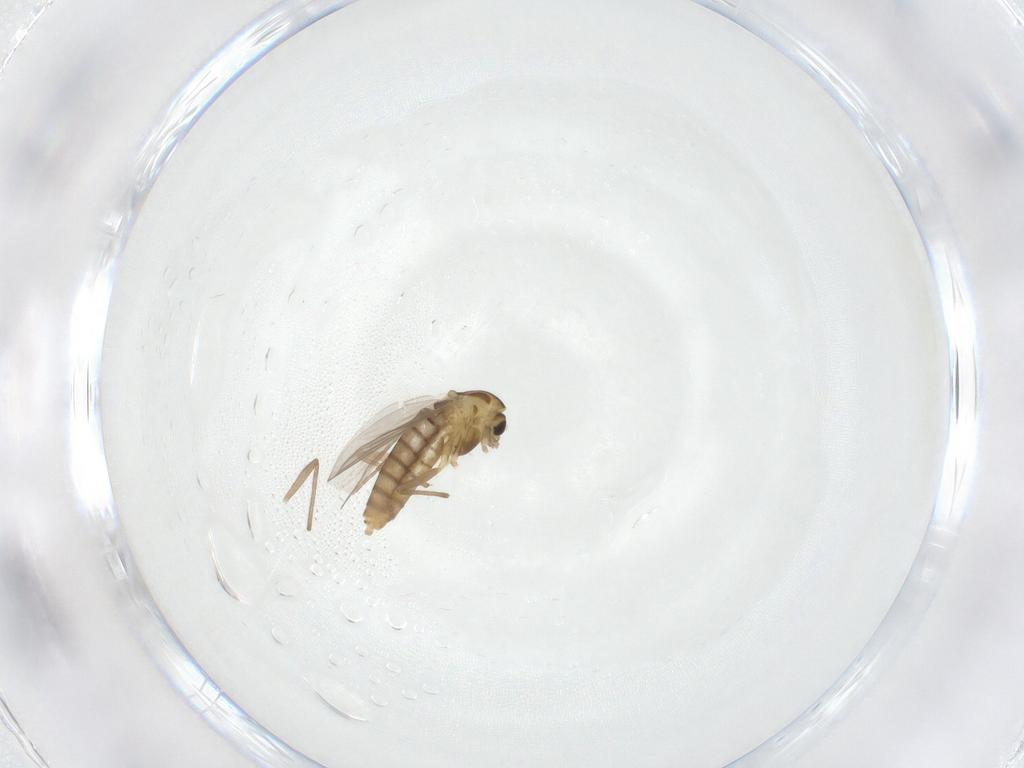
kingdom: Animalia
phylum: Arthropoda
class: Insecta
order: Diptera
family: Chironomidae
